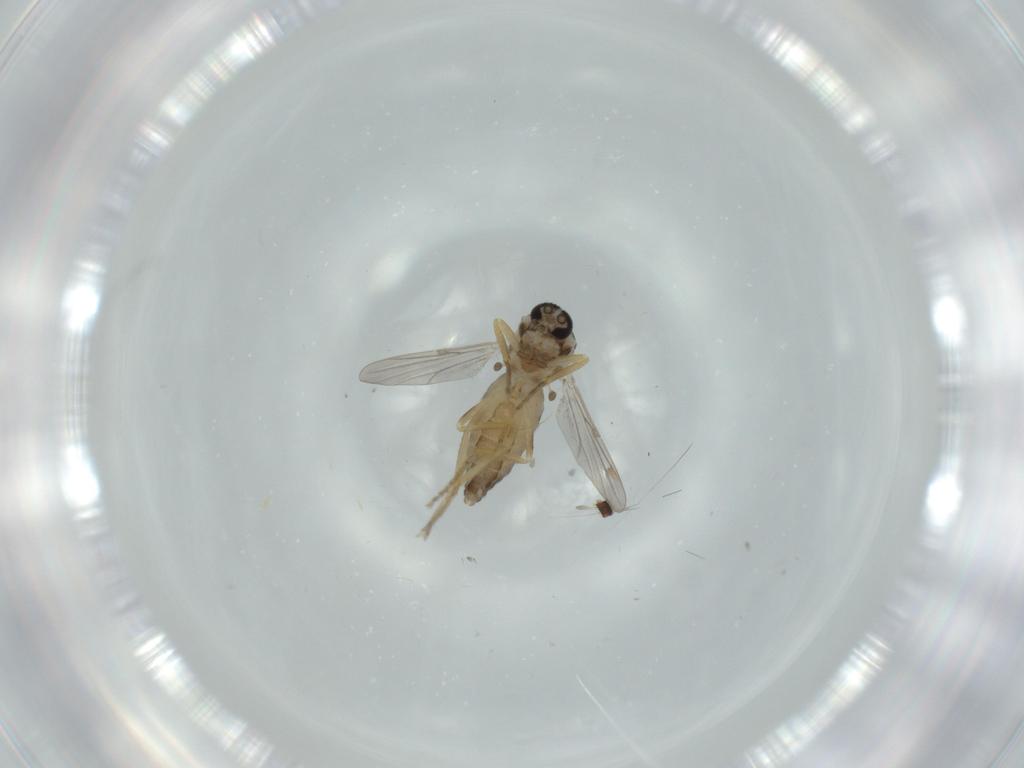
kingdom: Animalia
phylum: Arthropoda
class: Insecta
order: Diptera
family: Ceratopogonidae
